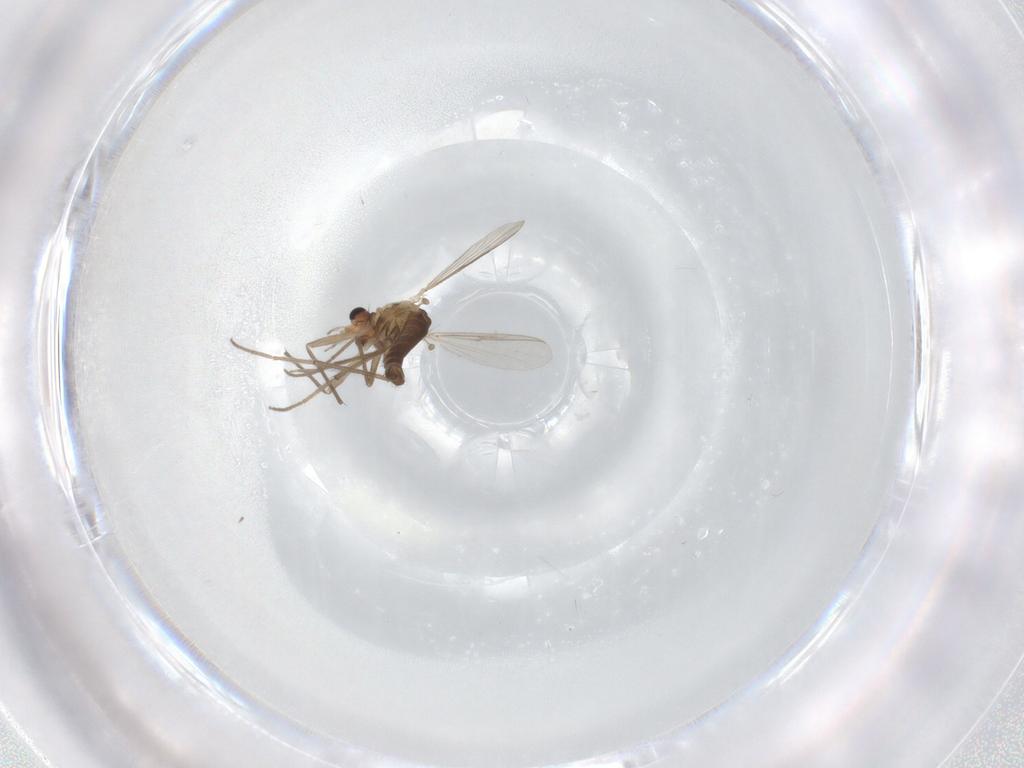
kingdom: Animalia
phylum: Arthropoda
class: Insecta
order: Diptera
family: Chironomidae
